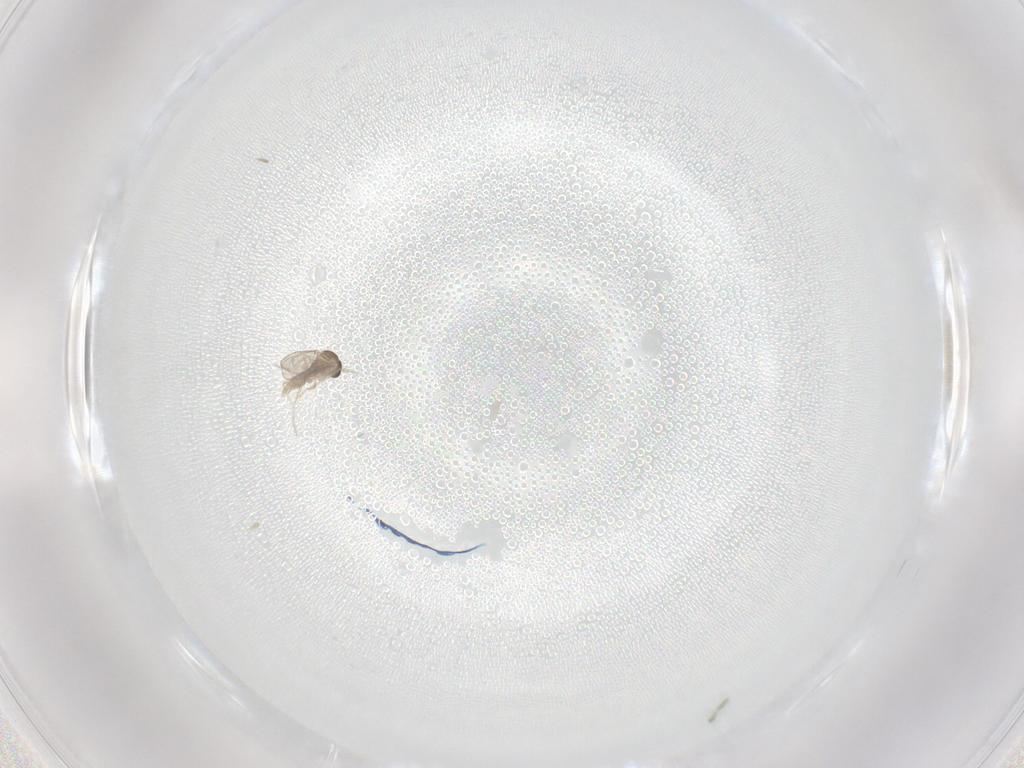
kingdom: Animalia
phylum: Arthropoda
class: Insecta
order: Diptera
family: Cecidomyiidae
